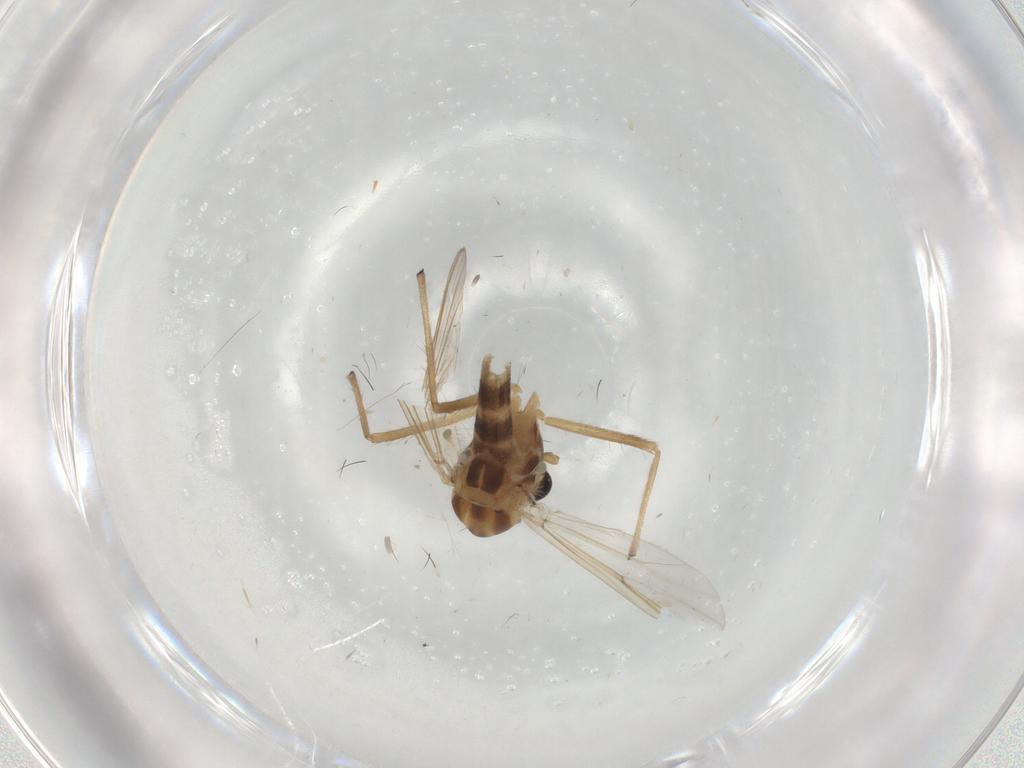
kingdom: Animalia
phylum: Arthropoda
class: Insecta
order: Diptera
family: Chironomidae
